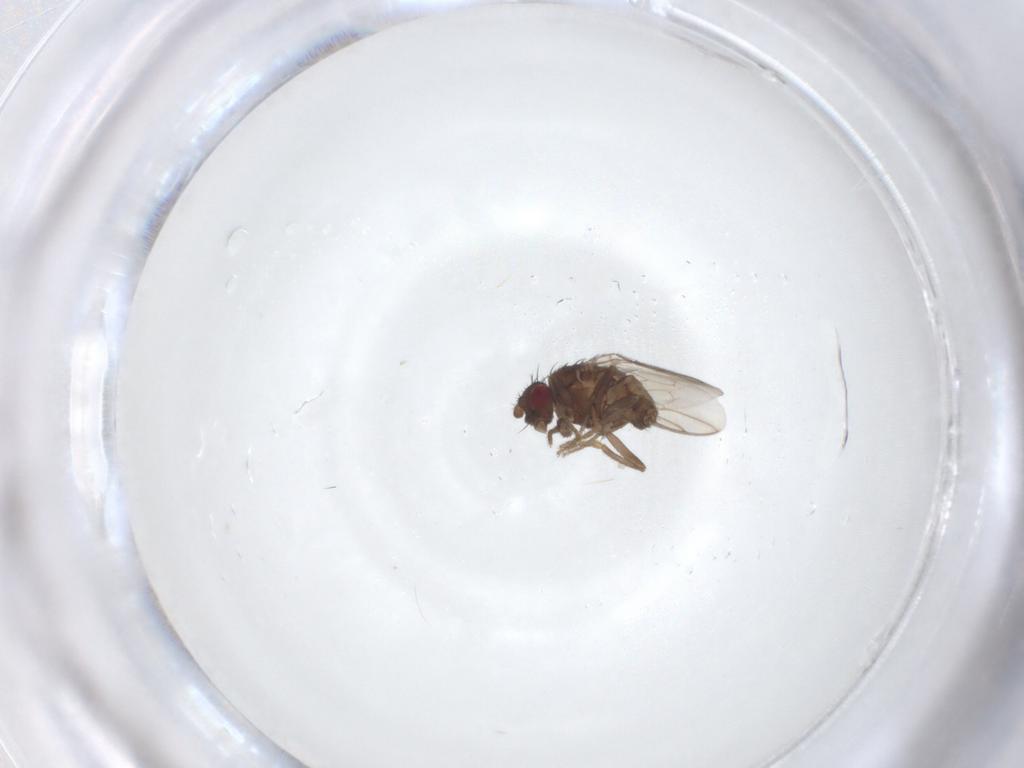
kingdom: Animalia
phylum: Arthropoda
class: Insecta
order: Diptera
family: Sphaeroceridae
